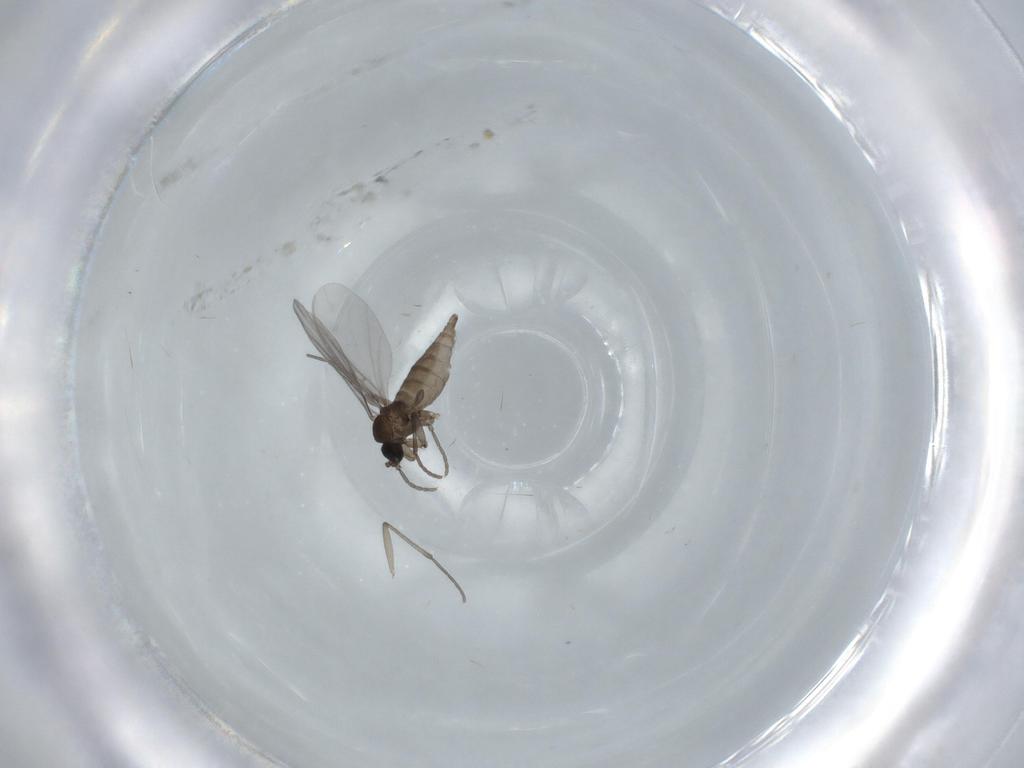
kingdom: Animalia
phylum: Arthropoda
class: Insecta
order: Diptera
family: Sciaridae
